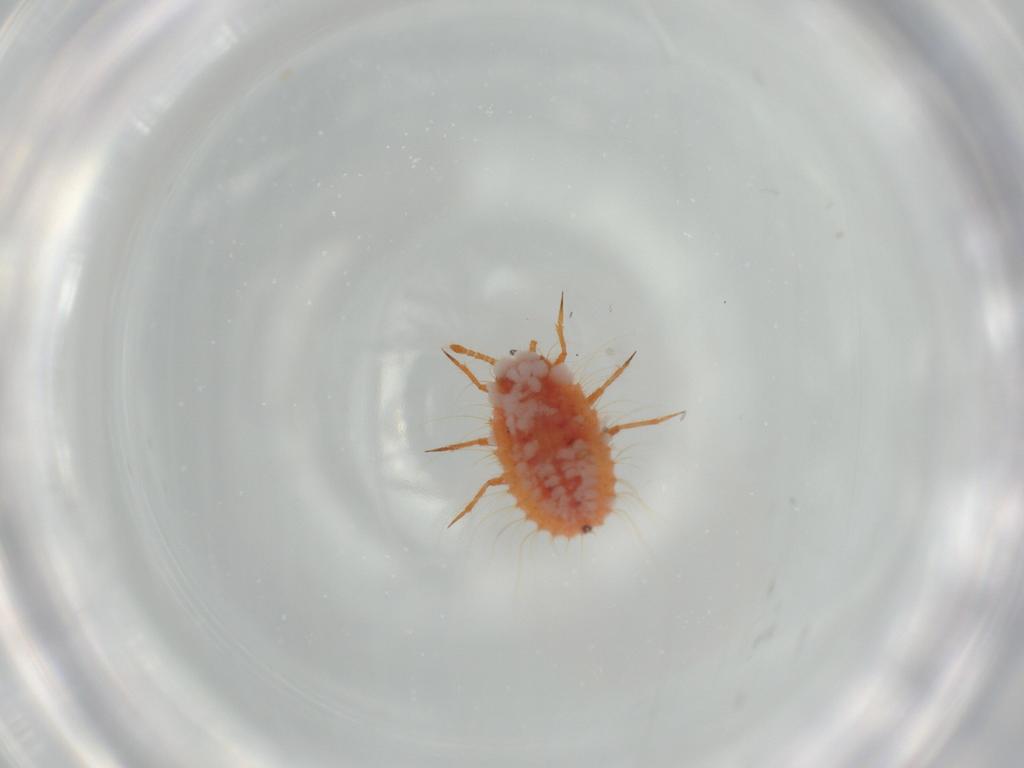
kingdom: Animalia
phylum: Arthropoda
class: Insecta
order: Hemiptera
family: Coccoidea_incertae_sedis
